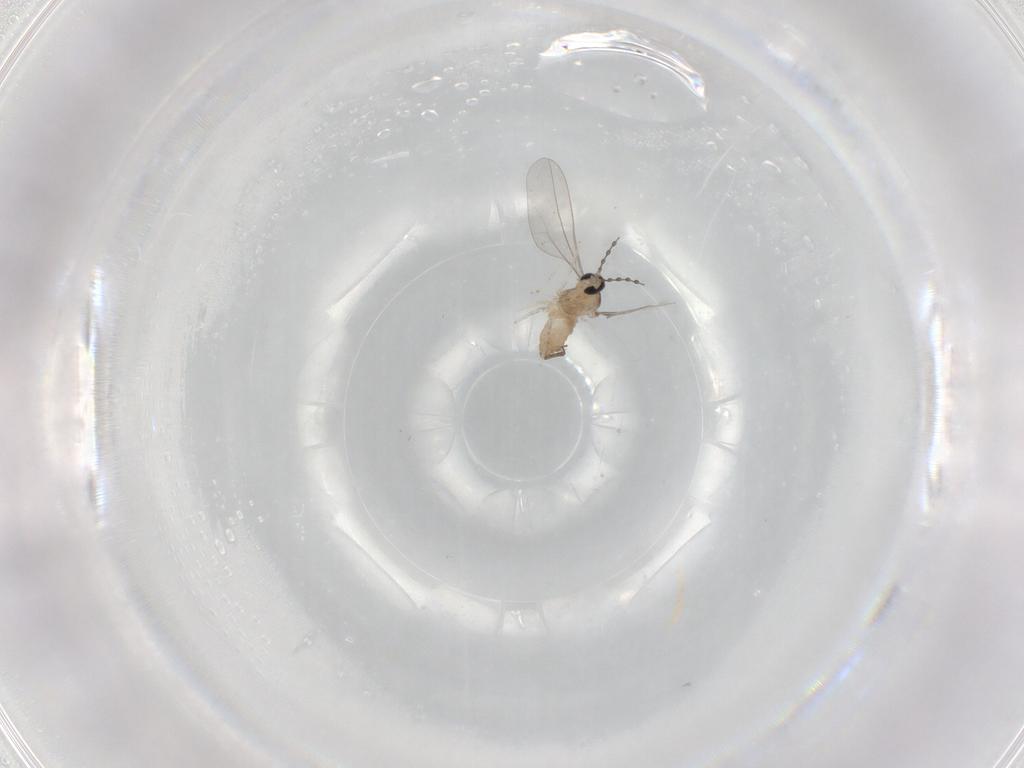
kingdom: Animalia
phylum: Arthropoda
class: Insecta
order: Diptera
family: Cecidomyiidae
